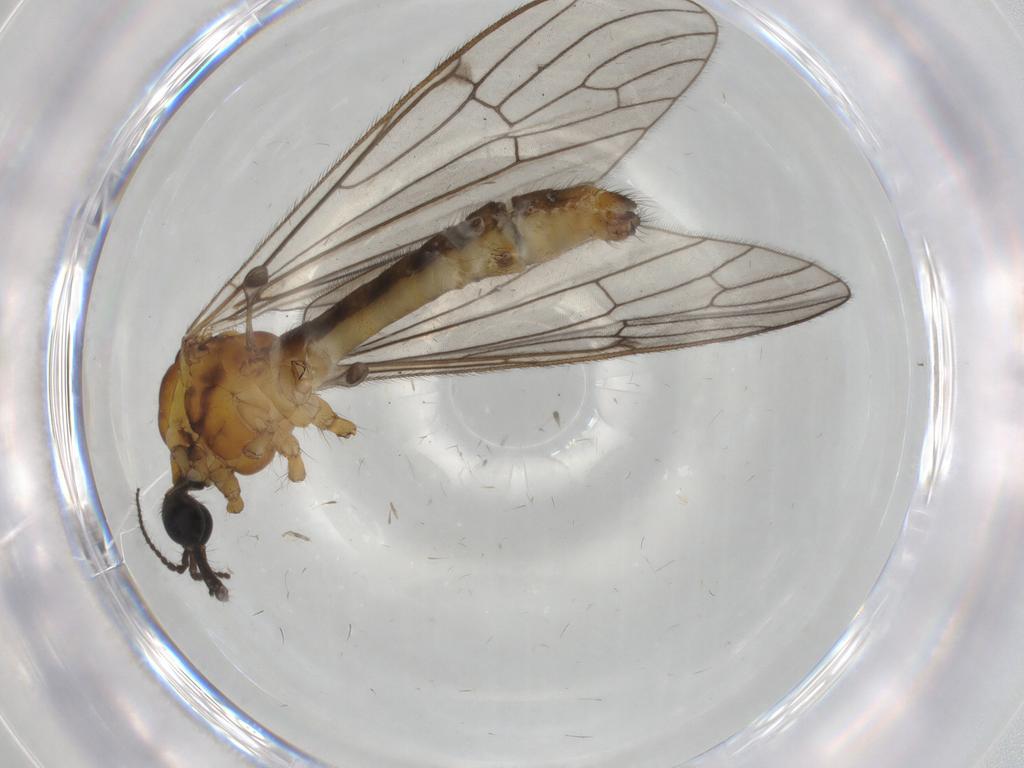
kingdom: Animalia
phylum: Arthropoda
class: Insecta
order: Diptera
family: Limoniidae
